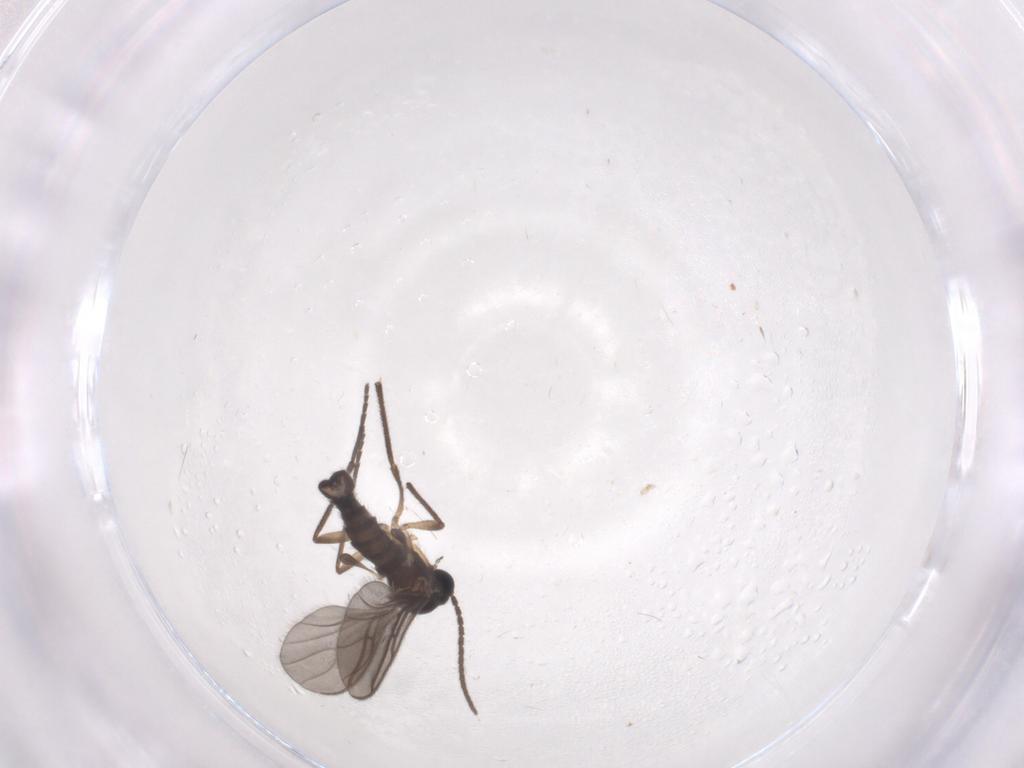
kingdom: Animalia
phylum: Arthropoda
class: Insecta
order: Diptera
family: Sciaridae
